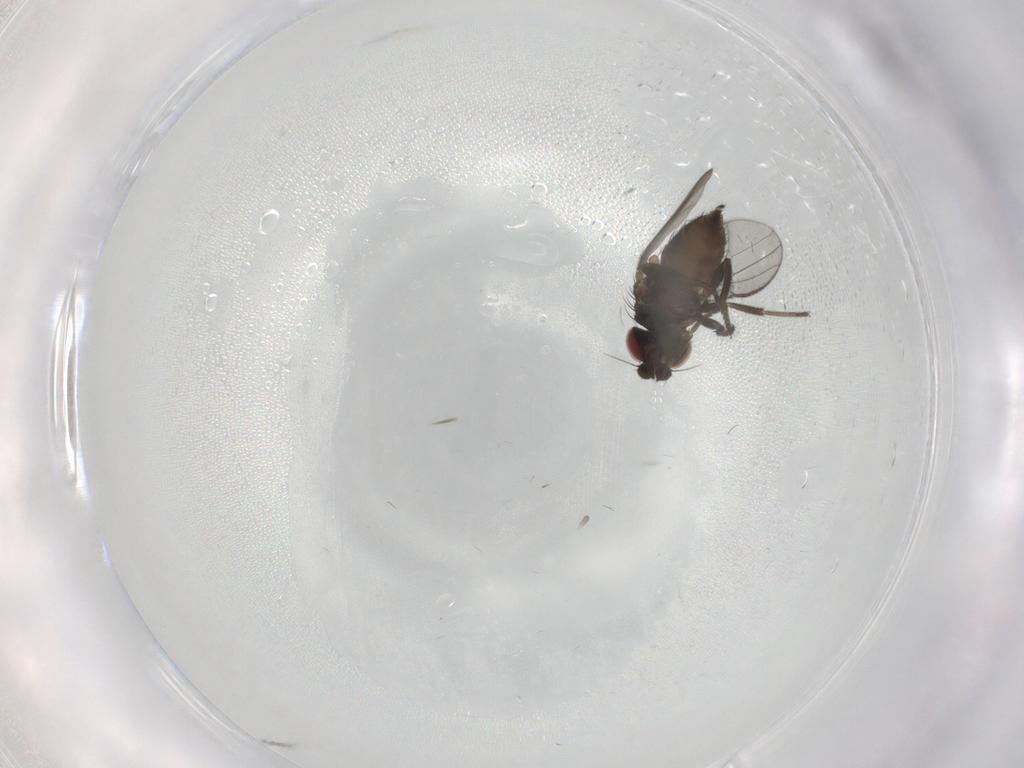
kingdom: Animalia
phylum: Arthropoda
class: Insecta
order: Diptera
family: Milichiidae
